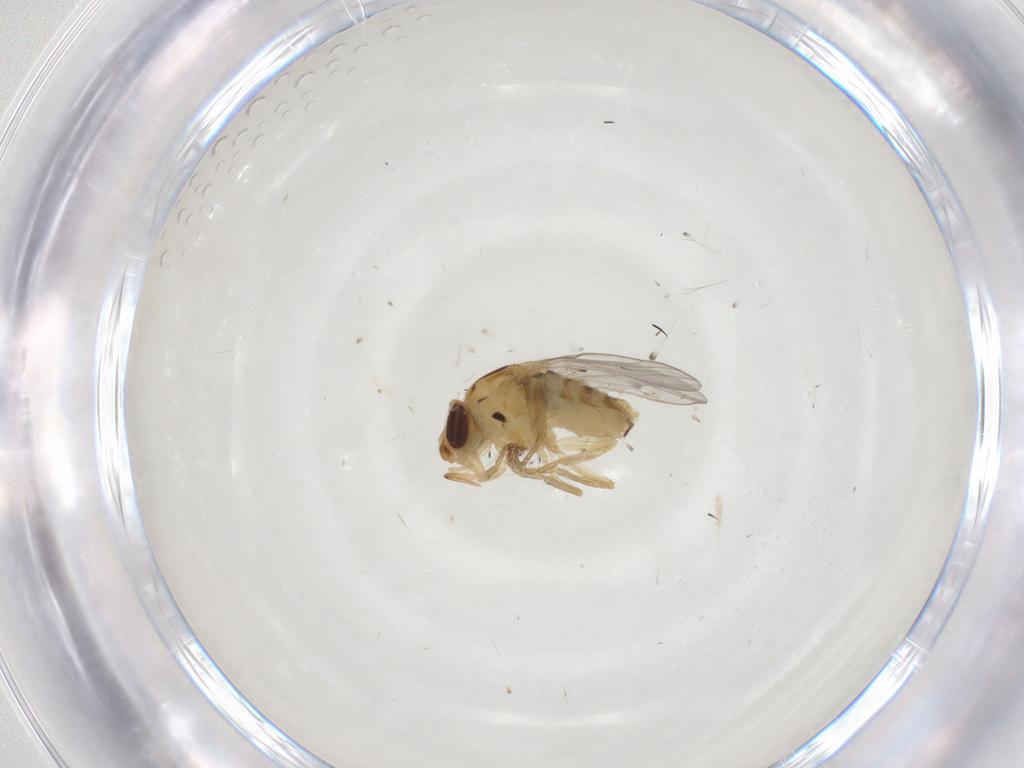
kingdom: Animalia
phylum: Arthropoda
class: Insecta
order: Diptera
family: Chloropidae
